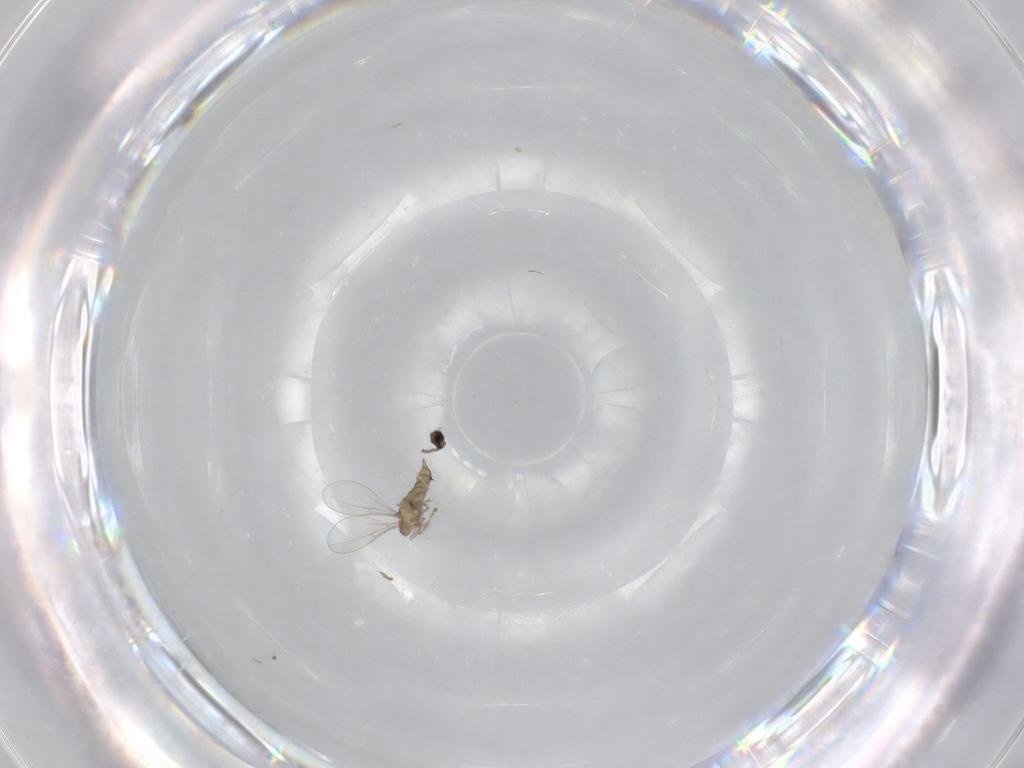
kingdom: Animalia
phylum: Arthropoda
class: Insecta
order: Diptera
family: Cecidomyiidae
